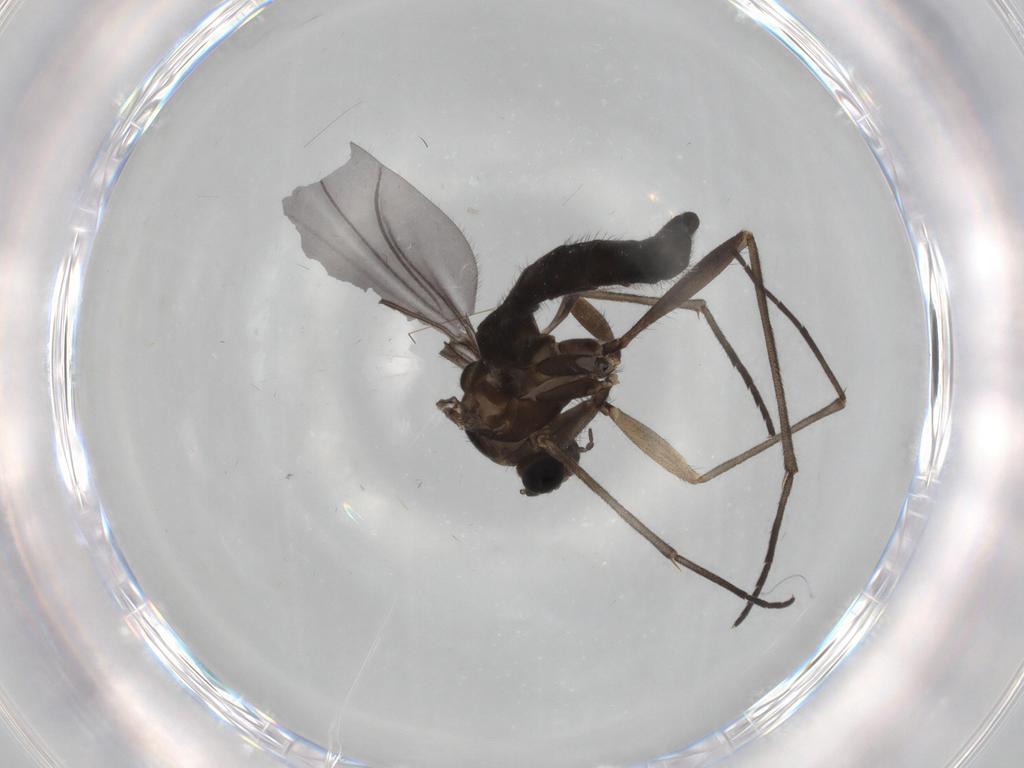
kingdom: Animalia
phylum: Arthropoda
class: Insecta
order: Diptera
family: Cecidomyiidae
